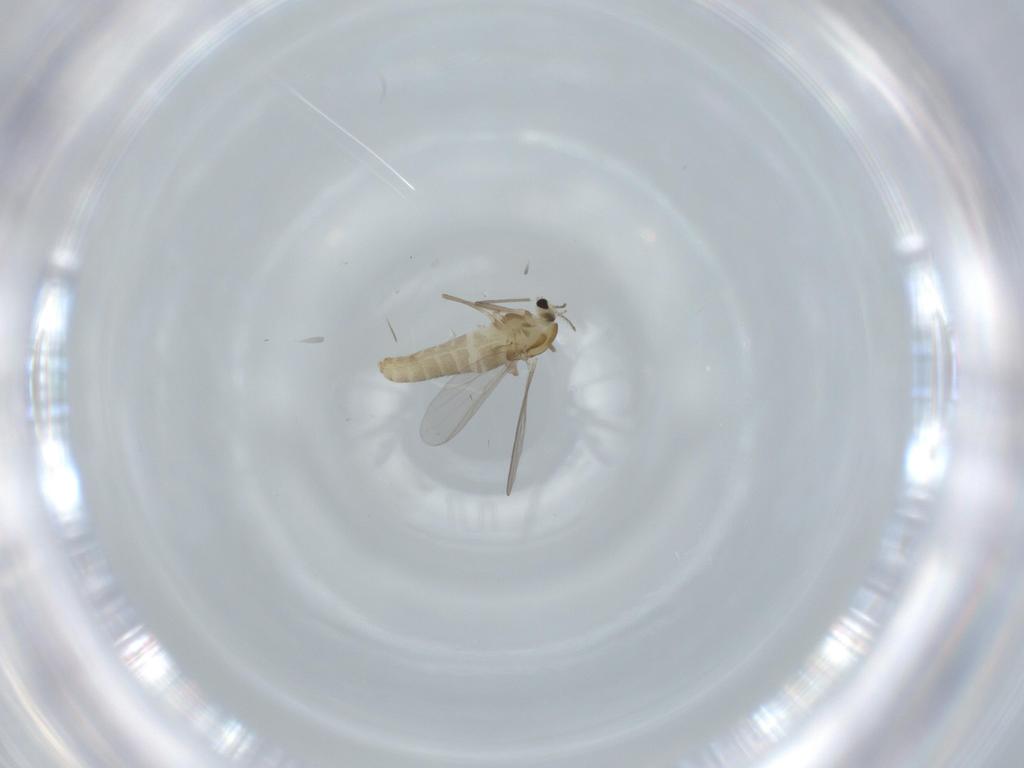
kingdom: Animalia
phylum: Arthropoda
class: Insecta
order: Diptera
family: Chironomidae
